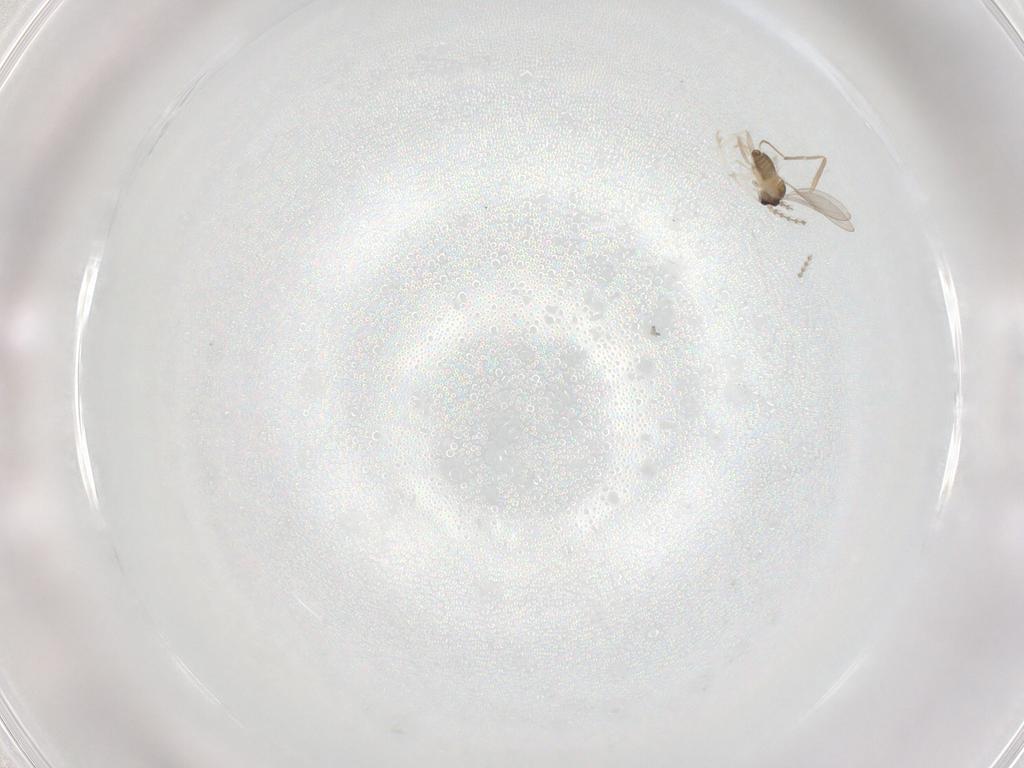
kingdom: Animalia
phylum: Arthropoda
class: Insecta
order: Diptera
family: Cecidomyiidae
